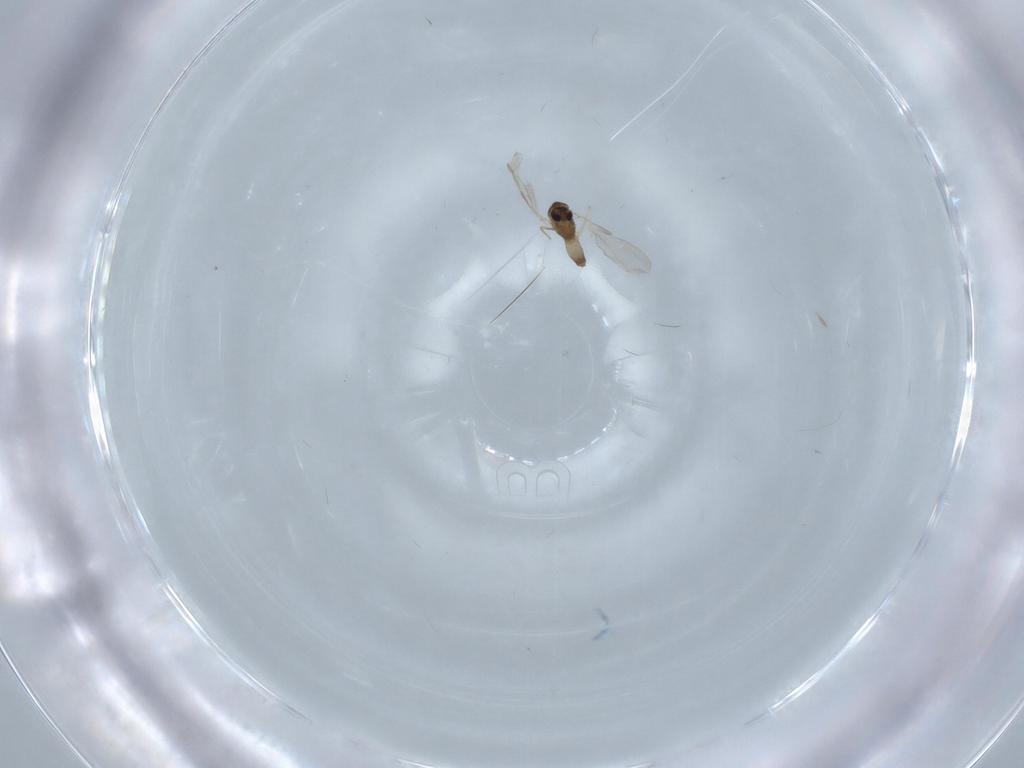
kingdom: Animalia
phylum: Arthropoda
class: Insecta
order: Diptera
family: Chironomidae
